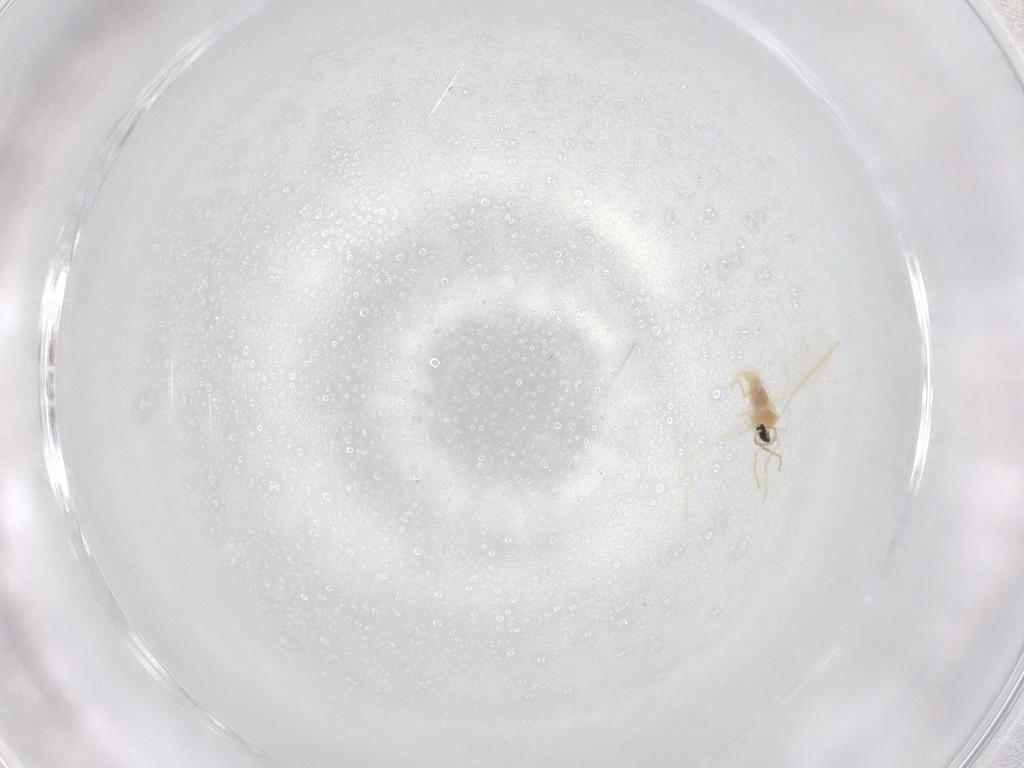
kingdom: Animalia
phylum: Arthropoda
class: Insecta
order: Diptera
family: Cecidomyiidae
